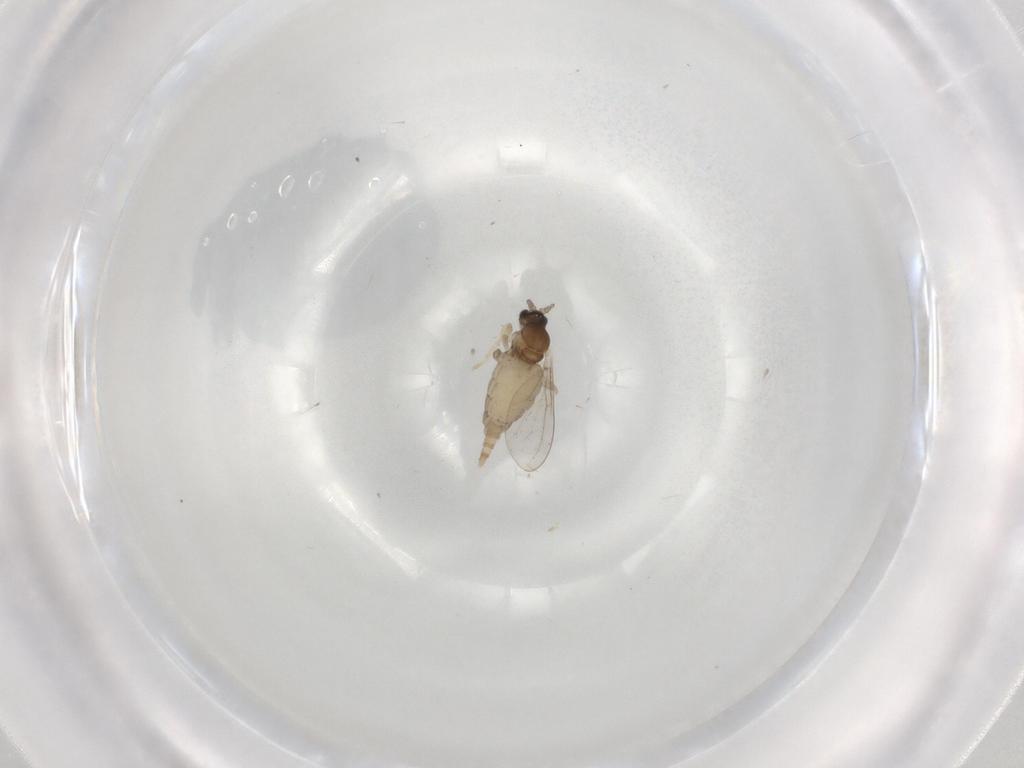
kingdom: Animalia
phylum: Arthropoda
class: Insecta
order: Diptera
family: Cecidomyiidae
